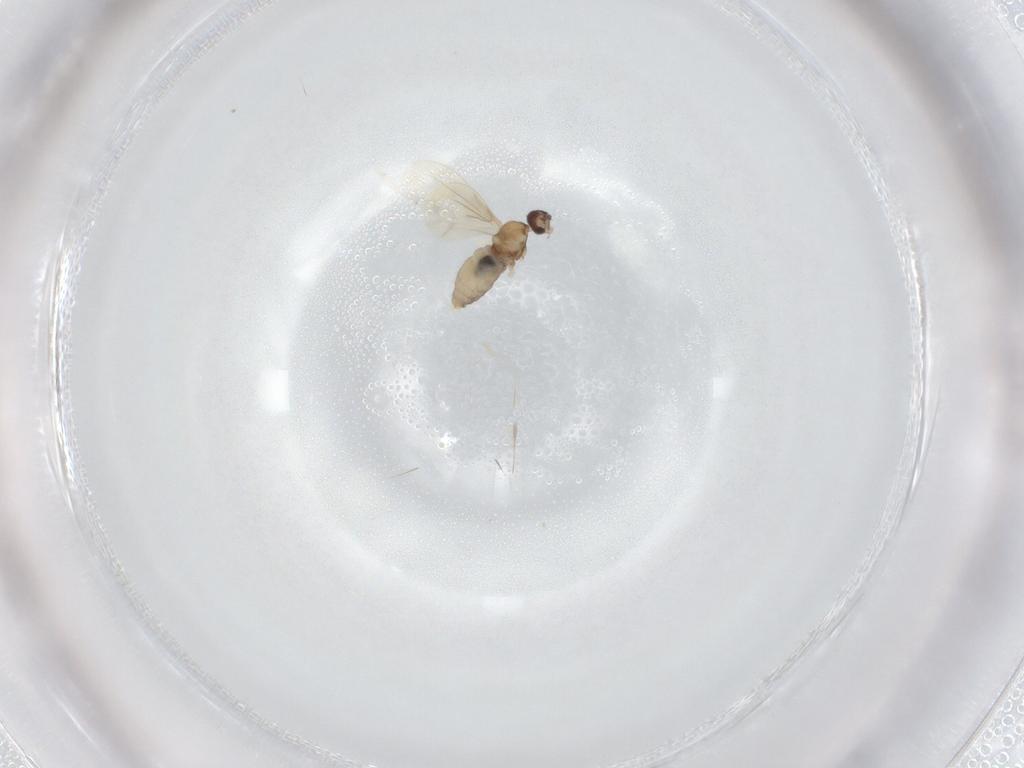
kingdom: Animalia
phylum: Arthropoda
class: Insecta
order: Diptera
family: Cecidomyiidae
